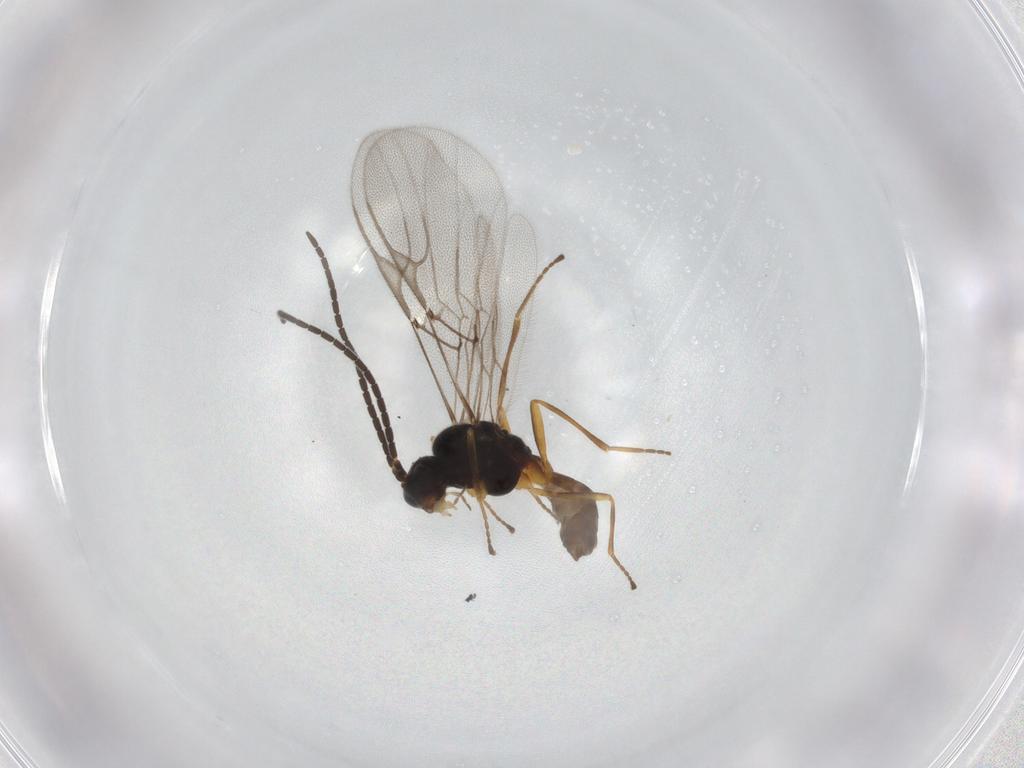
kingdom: Animalia
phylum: Arthropoda
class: Insecta
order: Hymenoptera
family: Braconidae
